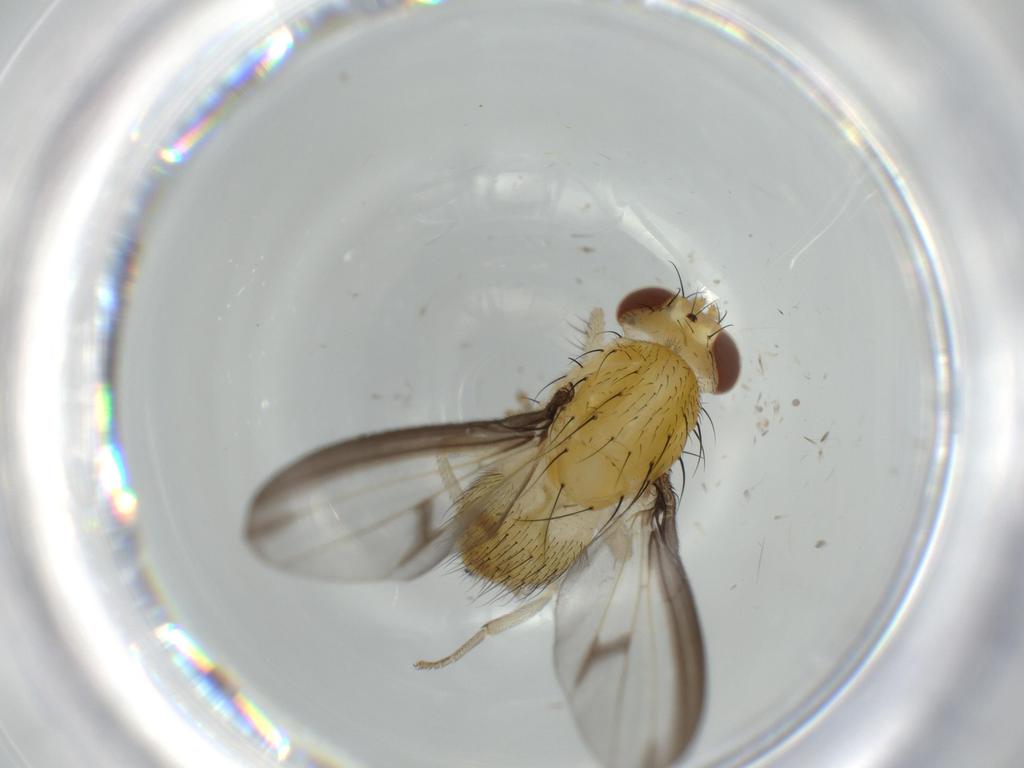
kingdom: Animalia
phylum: Arthropoda
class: Insecta
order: Diptera
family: Lauxaniidae
